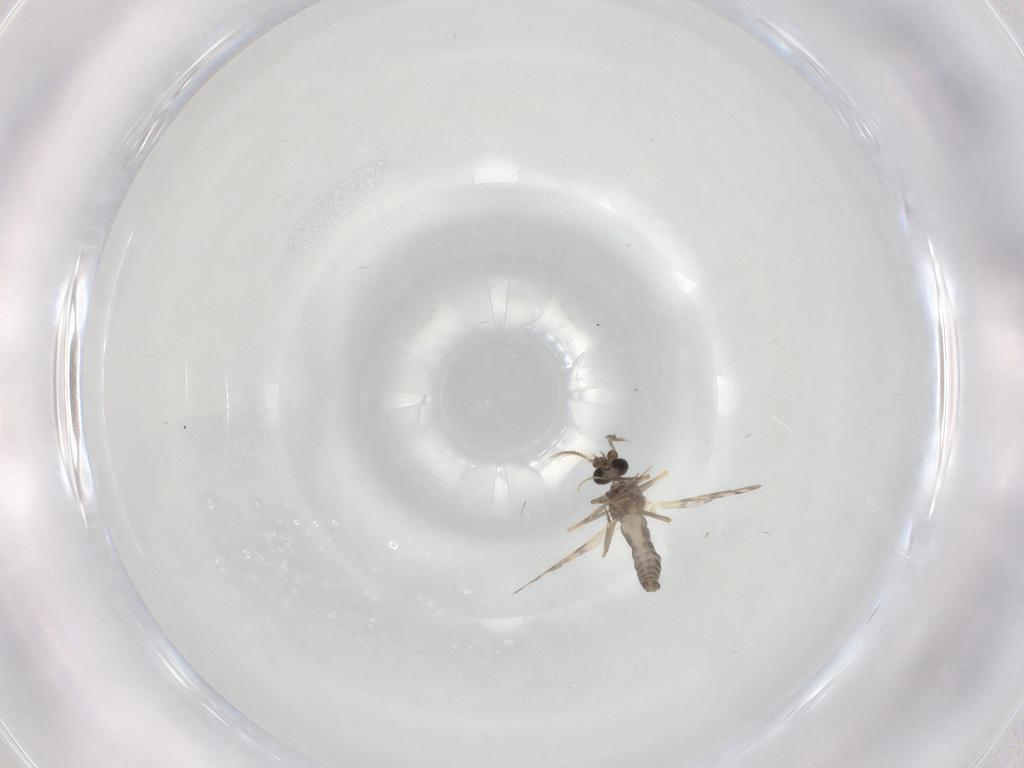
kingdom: Animalia
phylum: Arthropoda
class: Insecta
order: Diptera
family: Ceratopogonidae
